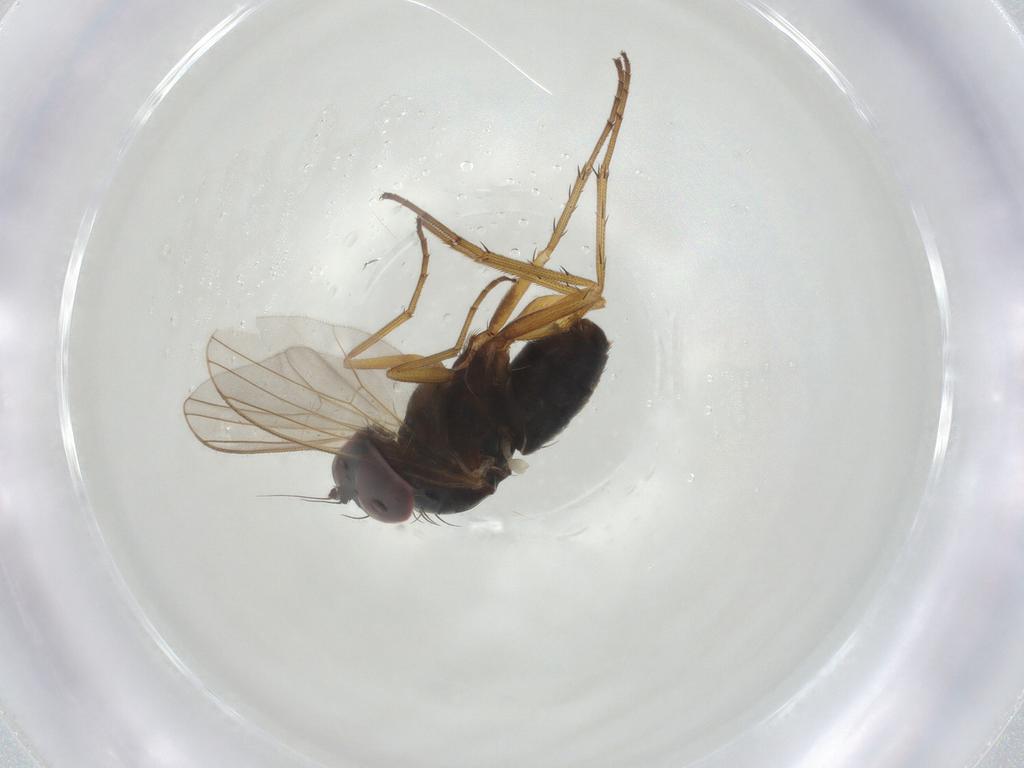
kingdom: Animalia
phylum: Arthropoda
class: Insecta
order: Diptera
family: Dolichopodidae
